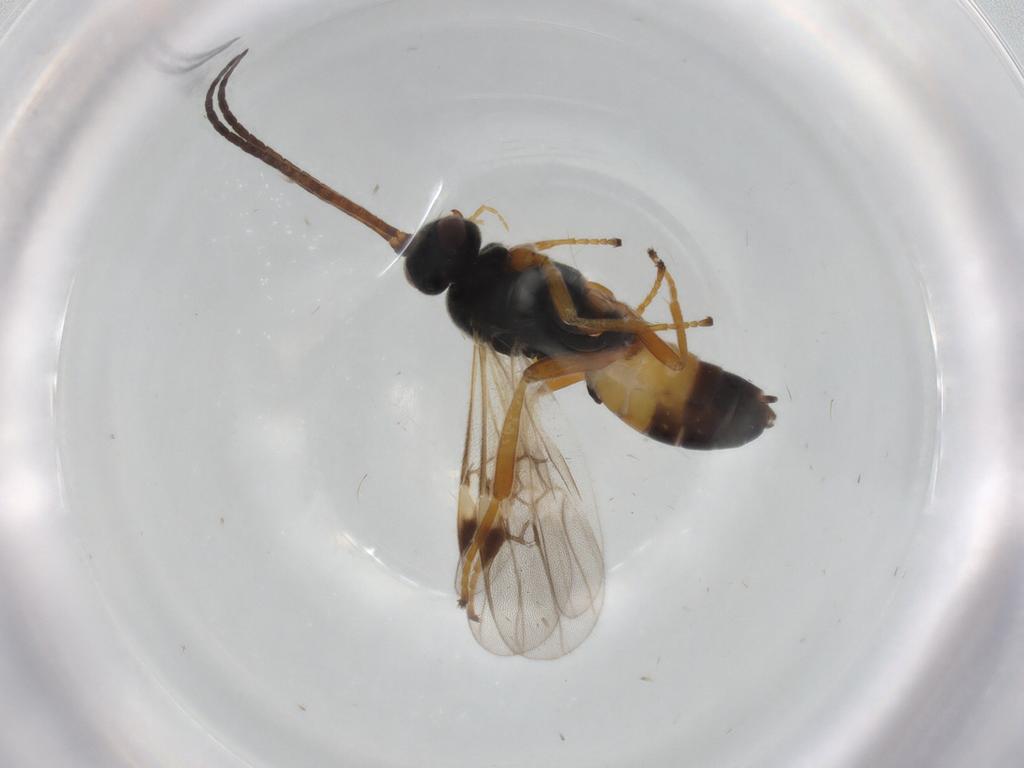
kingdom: Animalia
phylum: Arthropoda
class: Insecta
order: Hymenoptera
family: Braconidae
